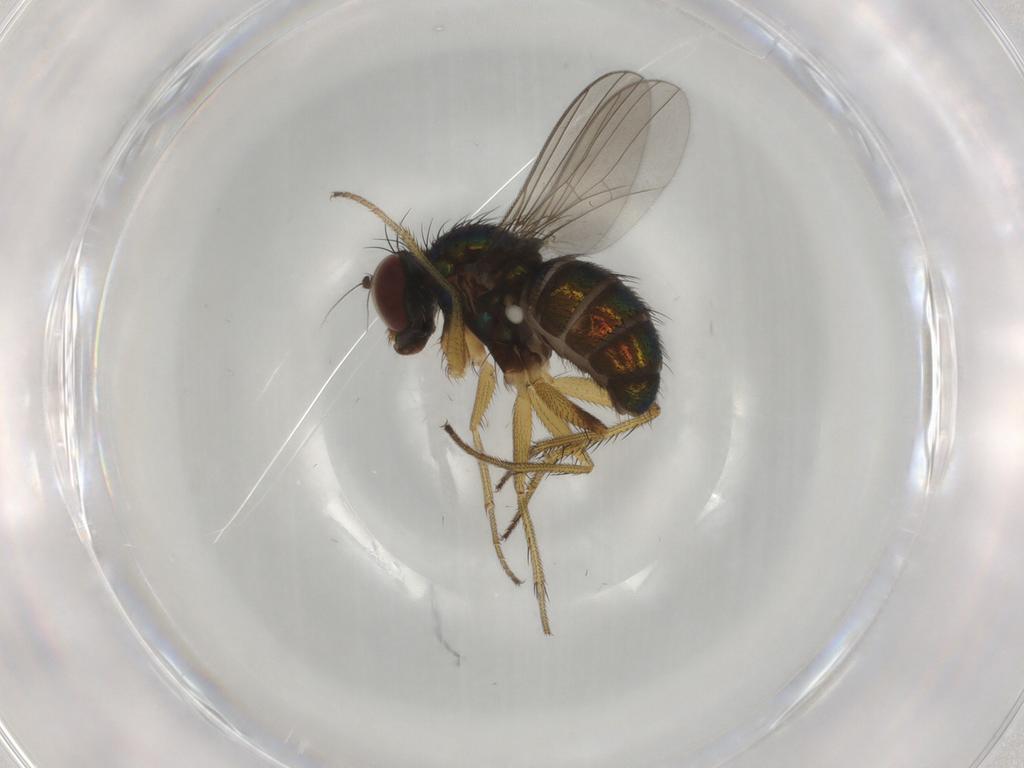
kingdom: Animalia
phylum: Arthropoda
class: Insecta
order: Diptera
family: Dolichopodidae
